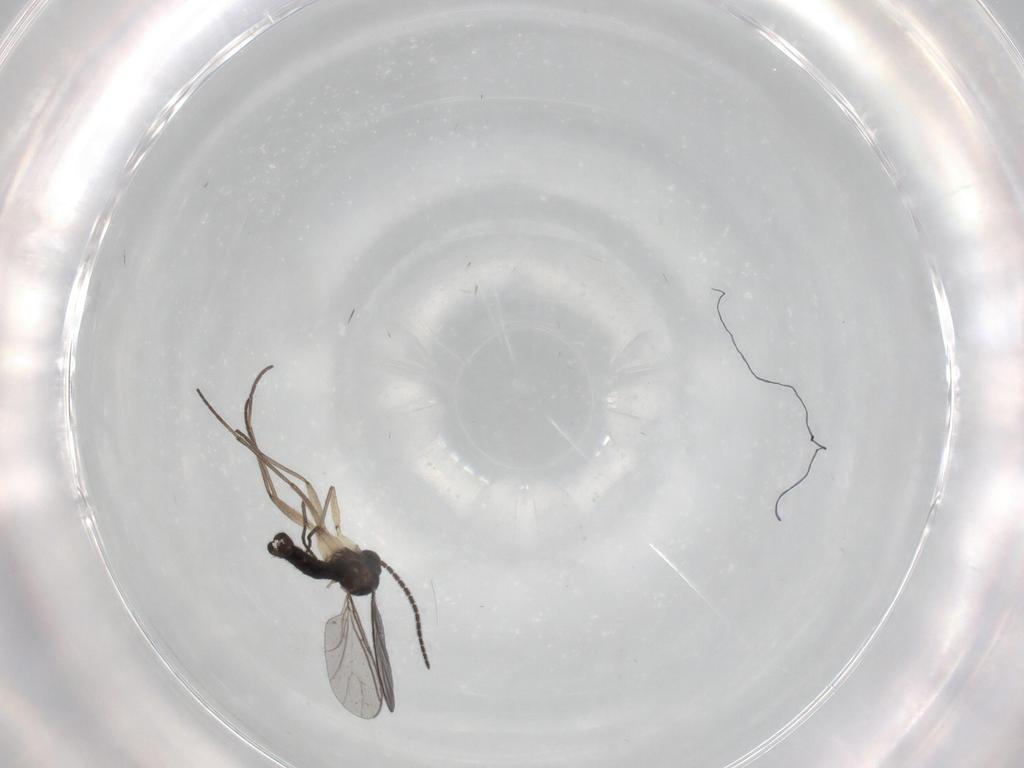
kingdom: Animalia
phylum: Arthropoda
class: Insecta
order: Diptera
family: Sciaridae
